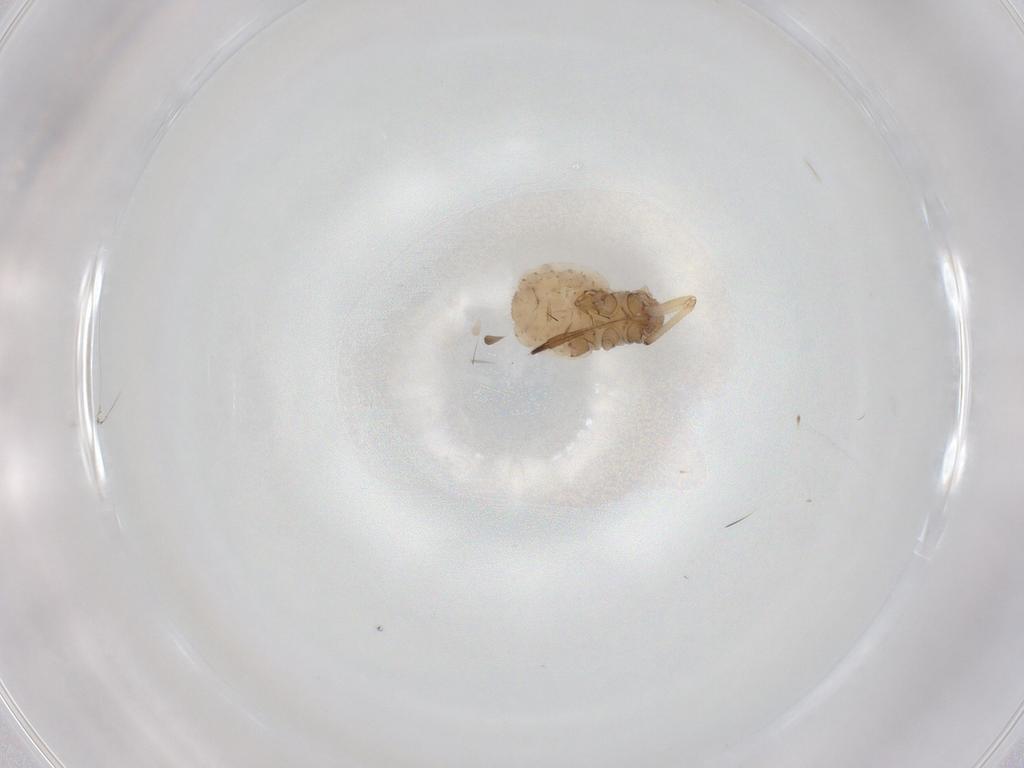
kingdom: Animalia
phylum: Arthropoda
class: Insecta
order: Hemiptera
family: Aphididae
